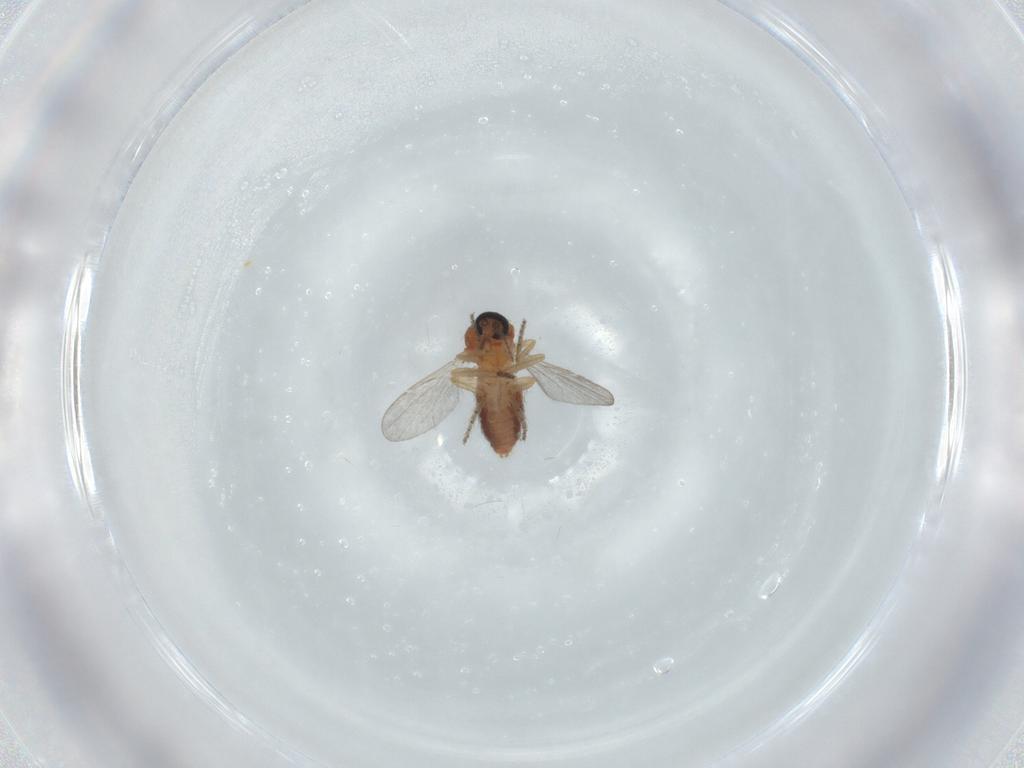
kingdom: Animalia
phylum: Arthropoda
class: Insecta
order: Diptera
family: Ceratopogonidae
